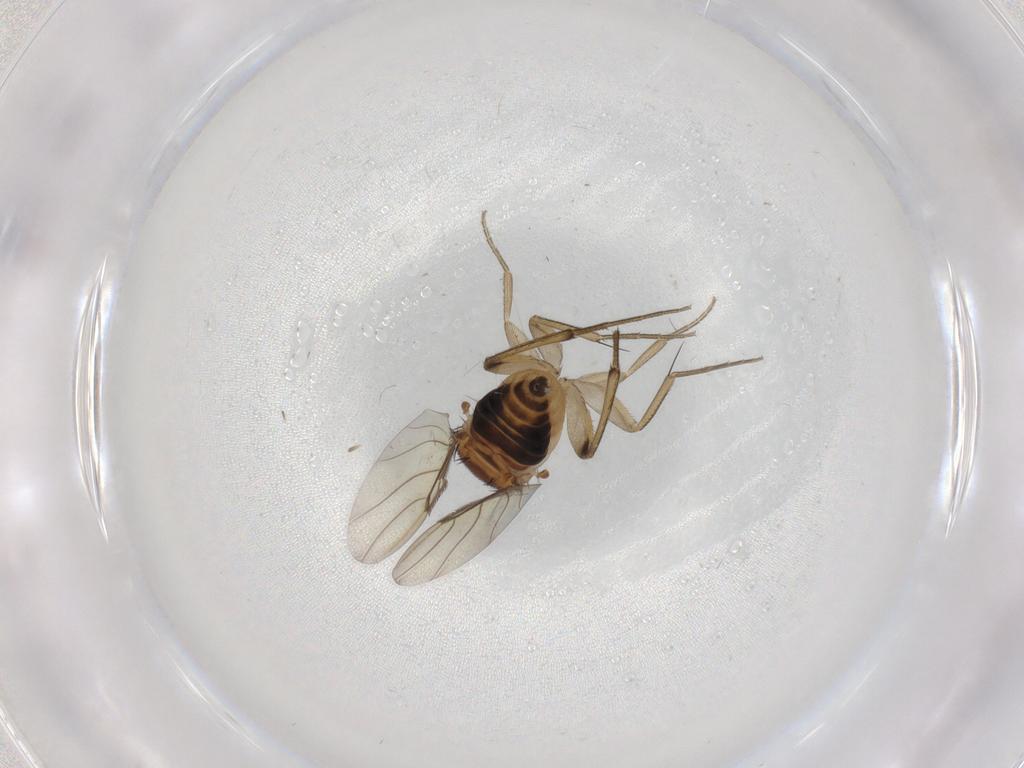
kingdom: Animalia
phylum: Arthropoda
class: Insecta
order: Diptera
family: Phoridae
